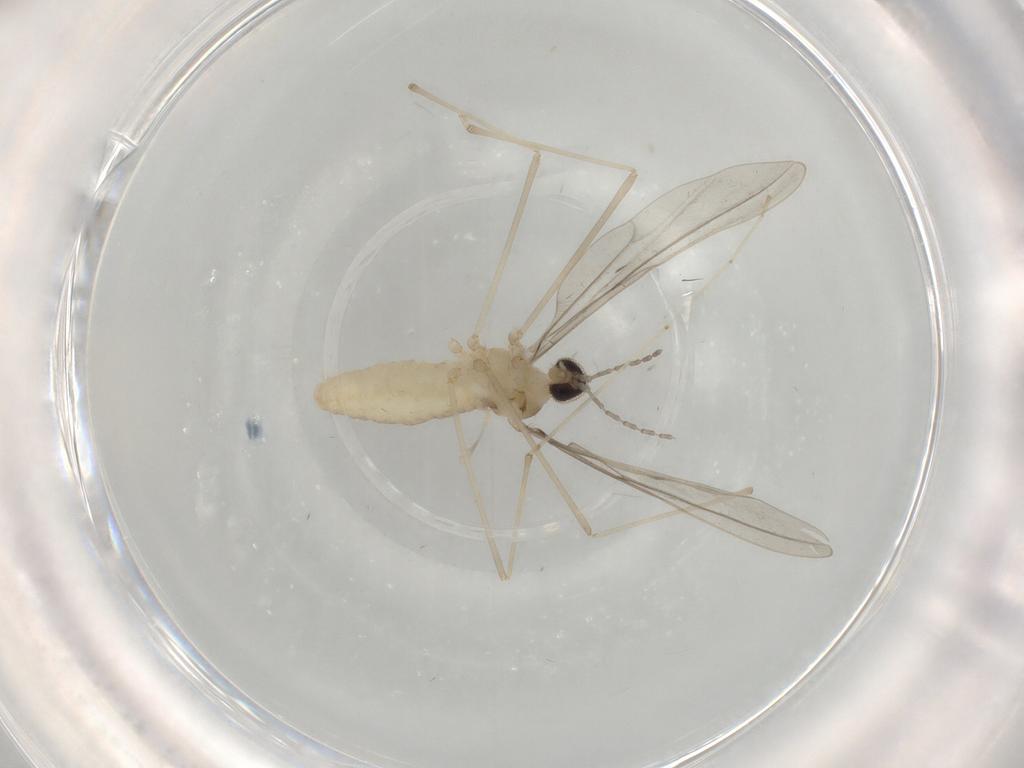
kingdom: Animalia
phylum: Arthropoda
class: Insecta
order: Diptera
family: Cecidomyiidae
